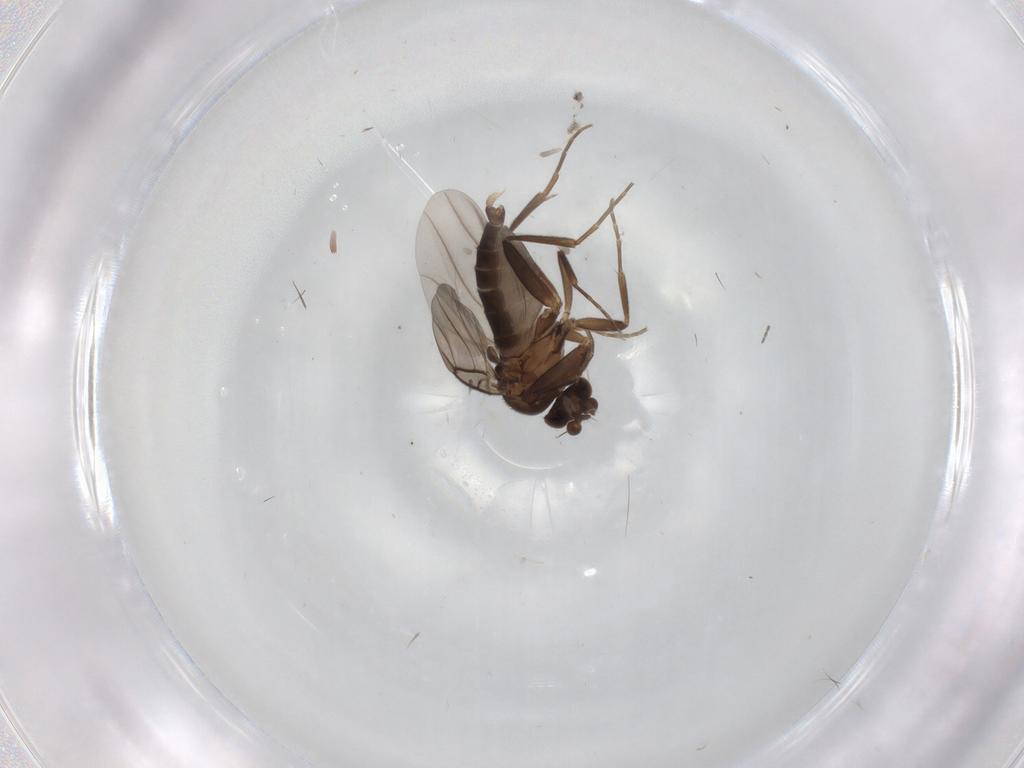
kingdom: Animalia
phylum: Arthropoda
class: Insecta
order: Diptera
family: Cecidomyiidae
